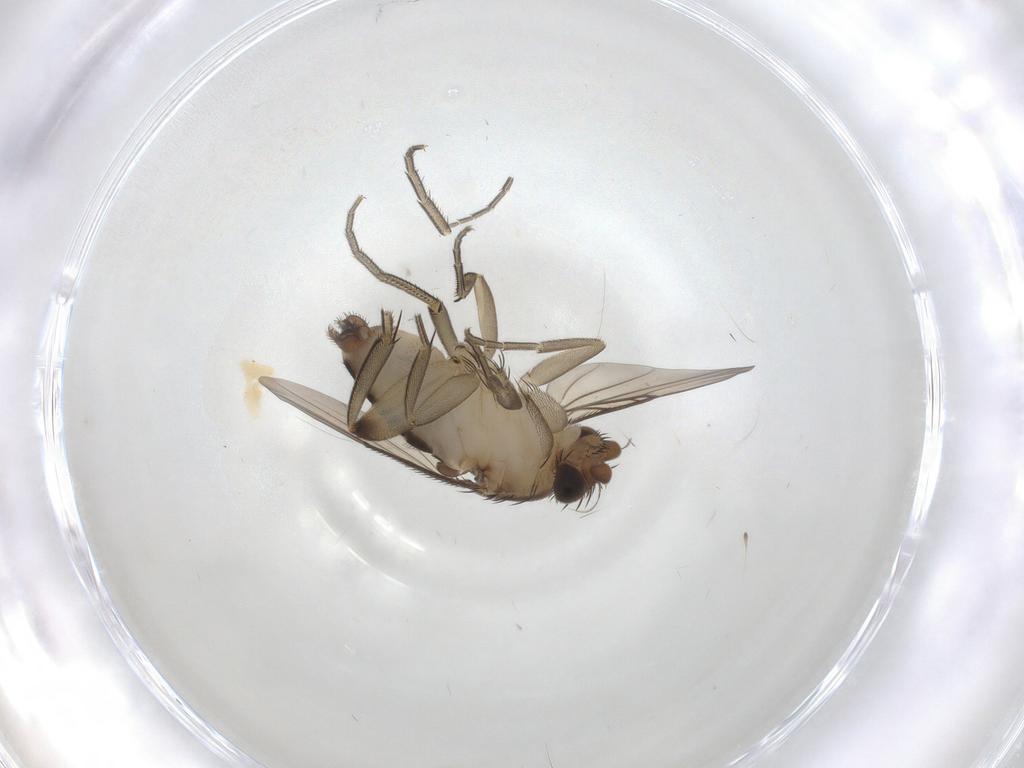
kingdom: Animalia
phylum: Arthropoda
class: Insecta
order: Diptera
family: Phoridae
